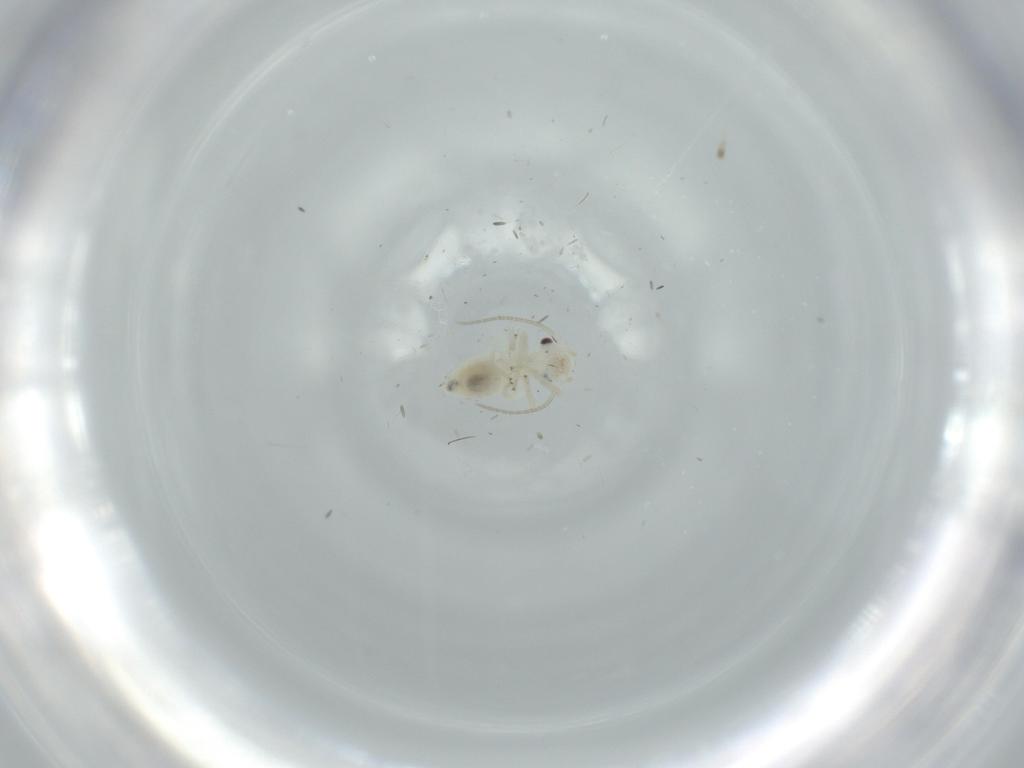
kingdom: Animalia
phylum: Arthropoda
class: Insecta
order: Psocodea
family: Caeciliusidae
